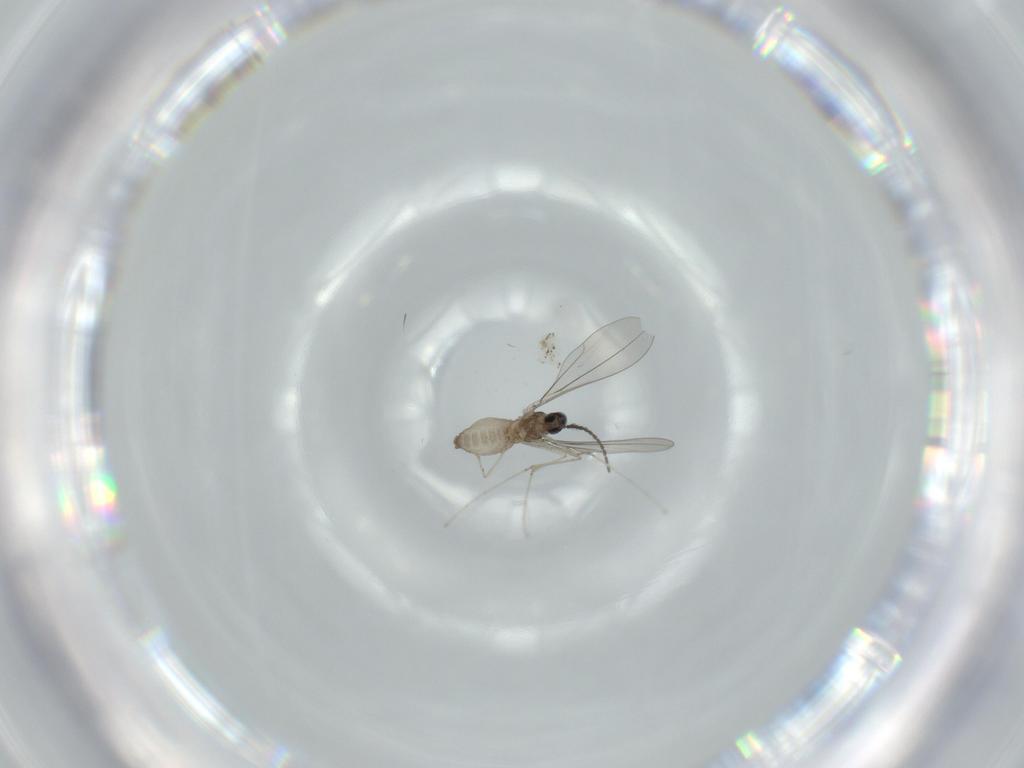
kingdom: Animalia
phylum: Arthropoda
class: Insecta
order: Diptera
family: Cecidomyiidae
